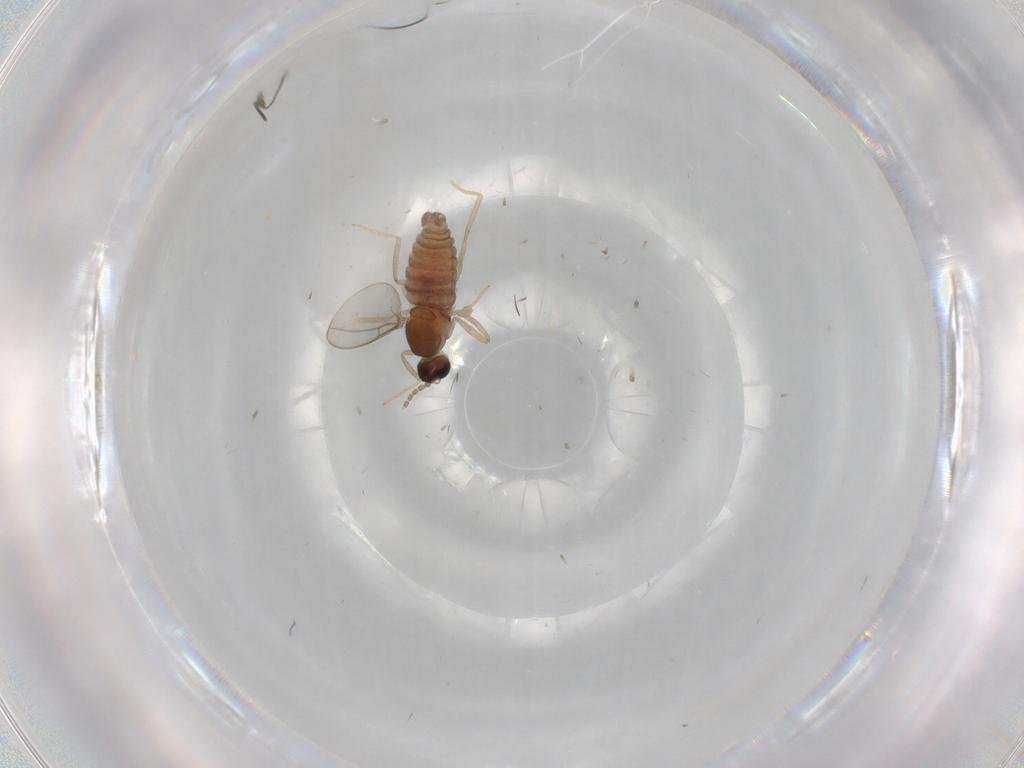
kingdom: Animalia
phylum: Arthropoda
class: Insecta
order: Diptera
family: Cecidomyiidae
